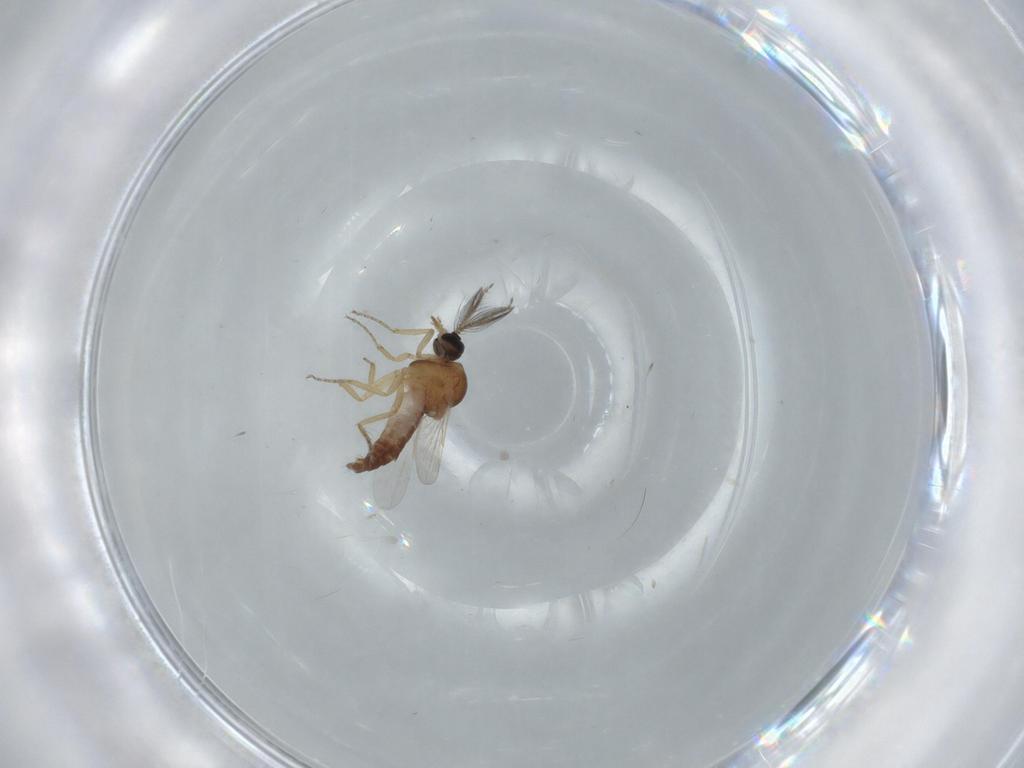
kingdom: Animalia
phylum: Arthropoda
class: Insecta
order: Diptera
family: Ceratopogonidae
